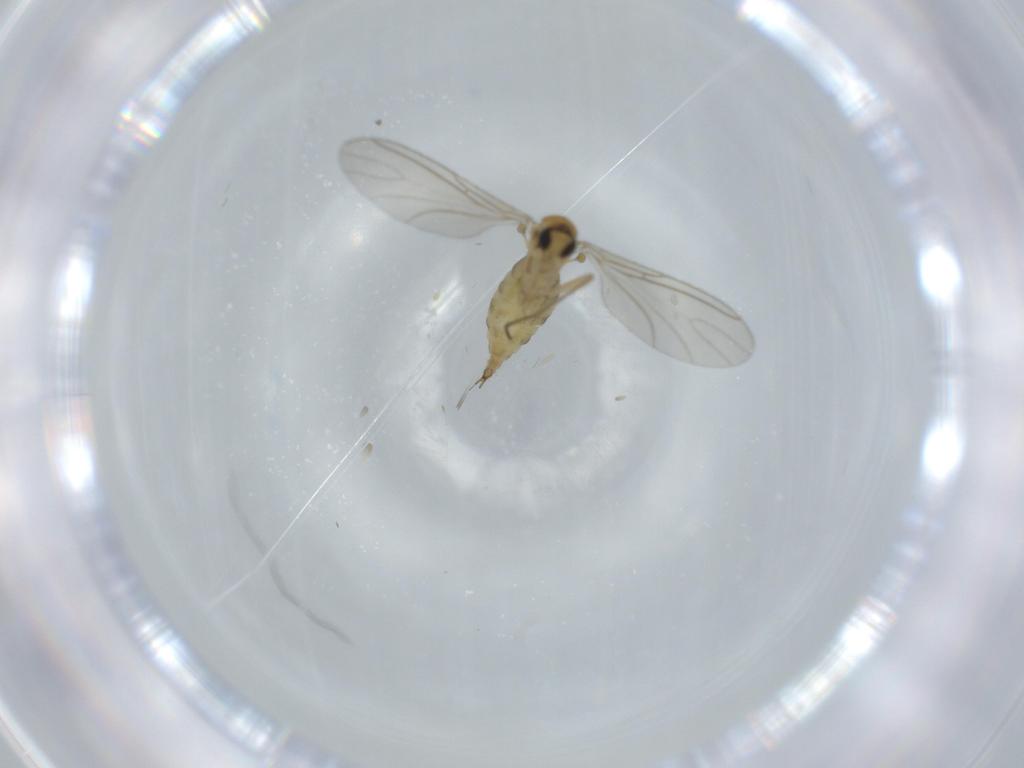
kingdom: Animalia
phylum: Arthropoda
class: Insecta
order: Diptera
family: Sciaridae
